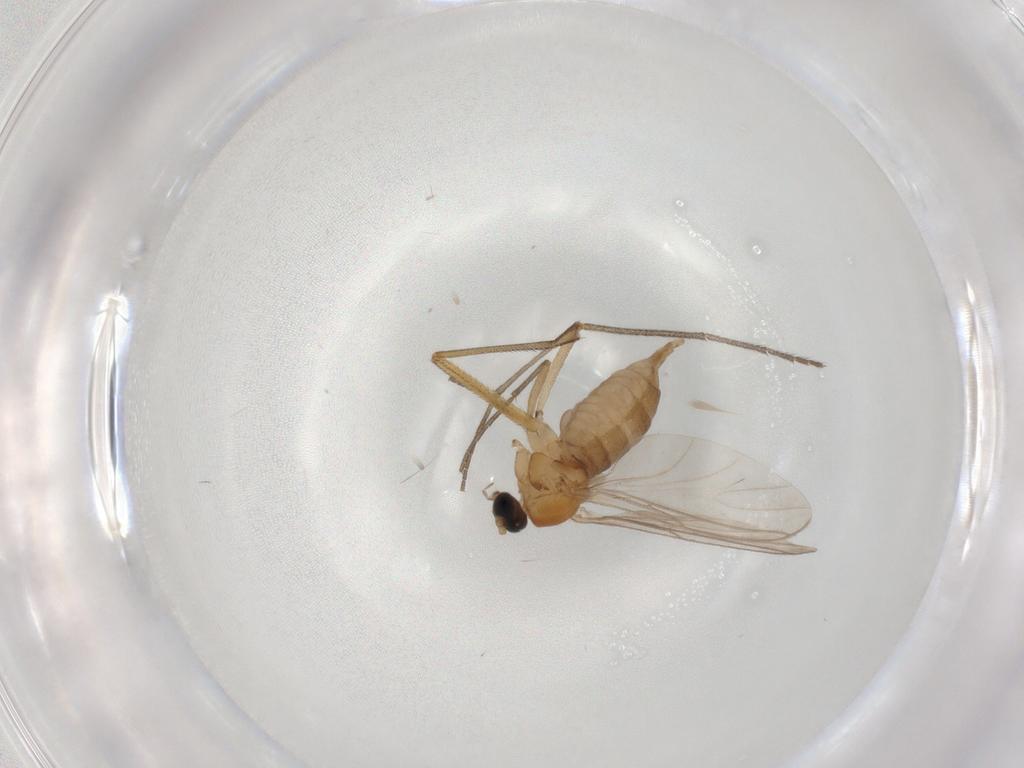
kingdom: Animalia
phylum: Arthropoda
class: Insecta
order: Diptera
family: Sciaridae
